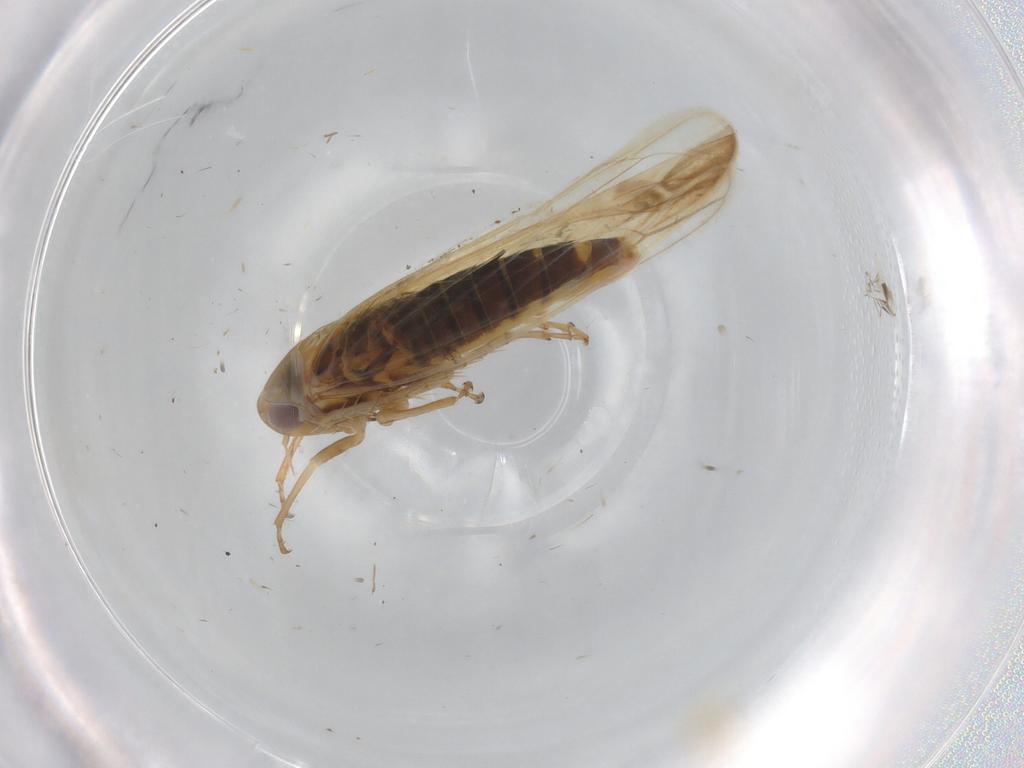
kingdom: Animalia
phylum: Arthropoda
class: Insecta
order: Hemiptera
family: Cicadellidae
